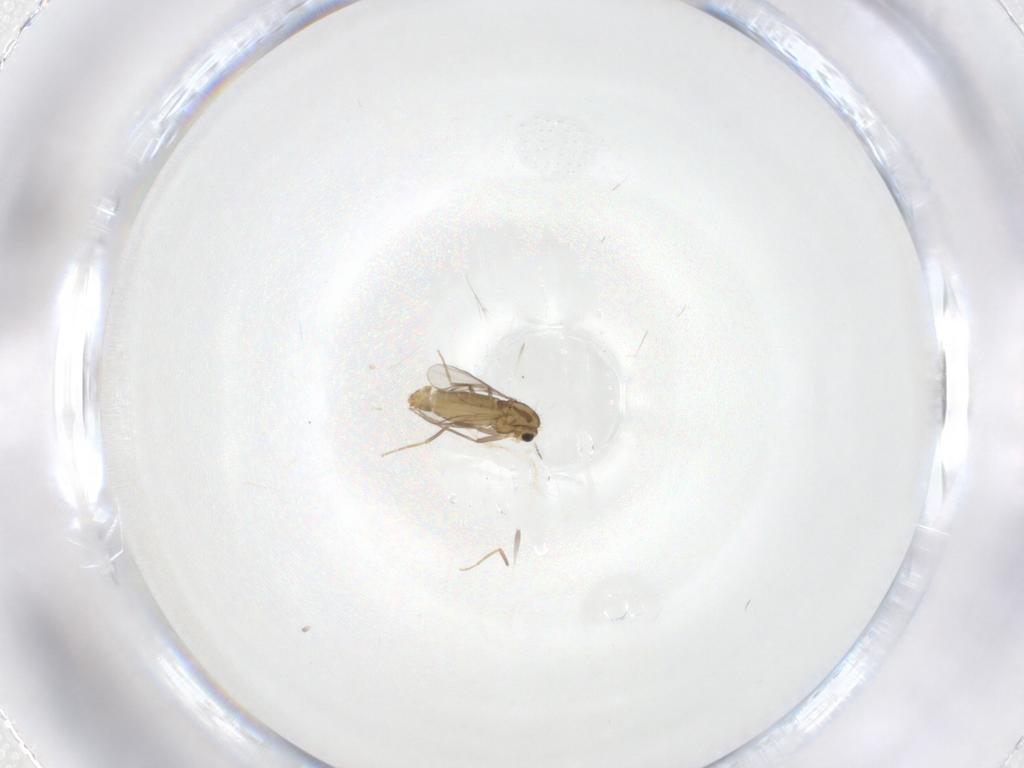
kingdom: Animalia
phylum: Arthropoda
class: Insecta
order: Diptera
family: Chironomidae
